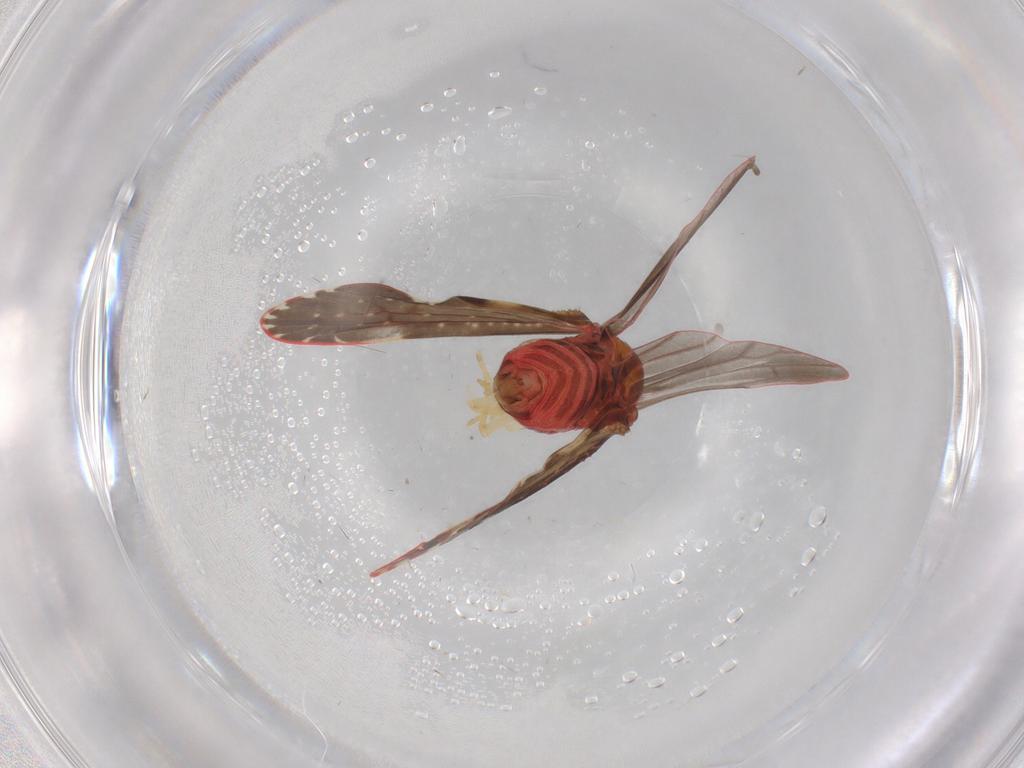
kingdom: Animalia
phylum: Arthropoda
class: Insecta
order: Hemiptera
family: Derbidae
